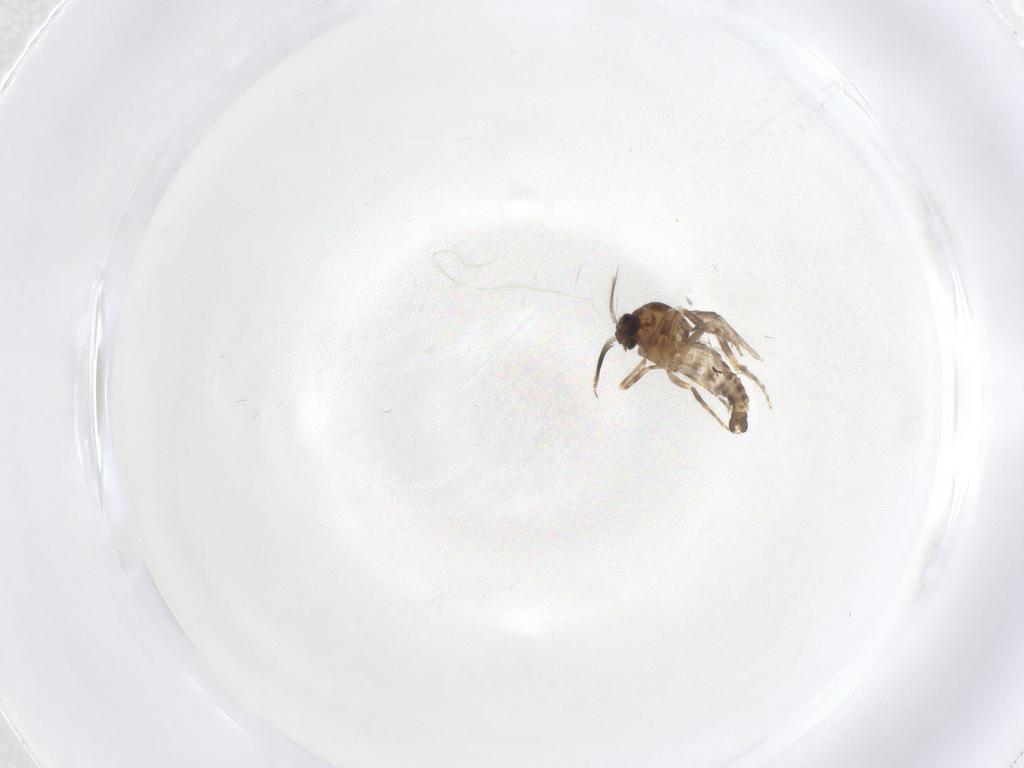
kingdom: Animalia
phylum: Arthropoda
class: Insecta
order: Diptera
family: Ceratopogonidae
